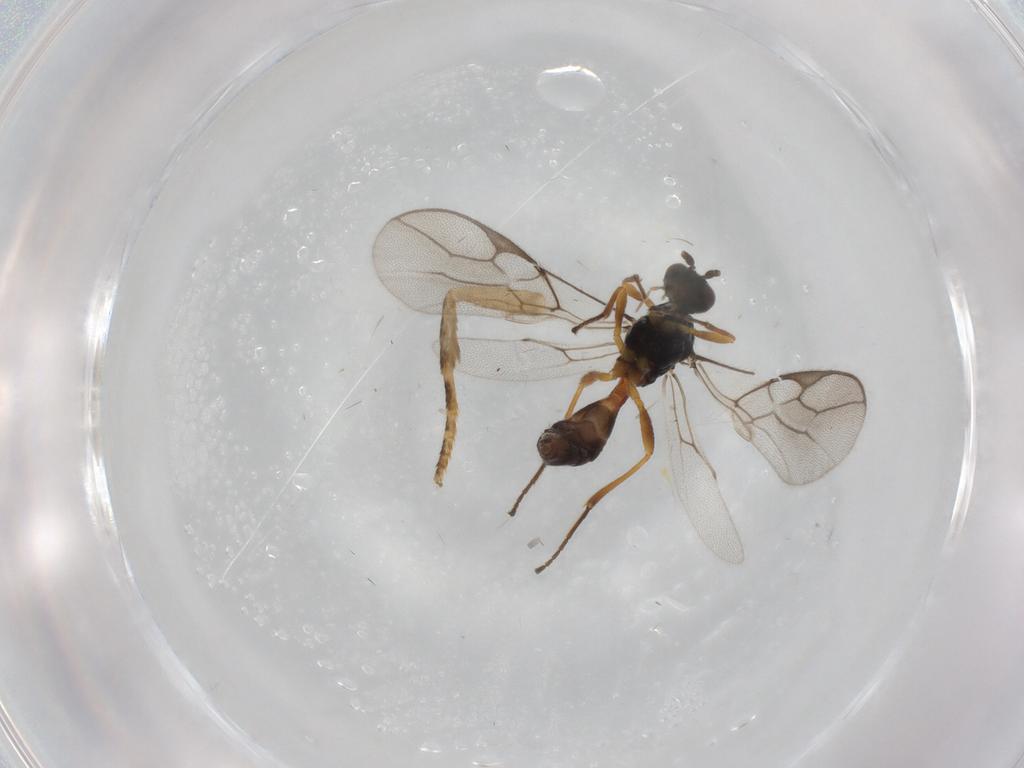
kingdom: Animalia
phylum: Arthropoda
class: Insecta
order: Hymenoptera
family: Braconidae
